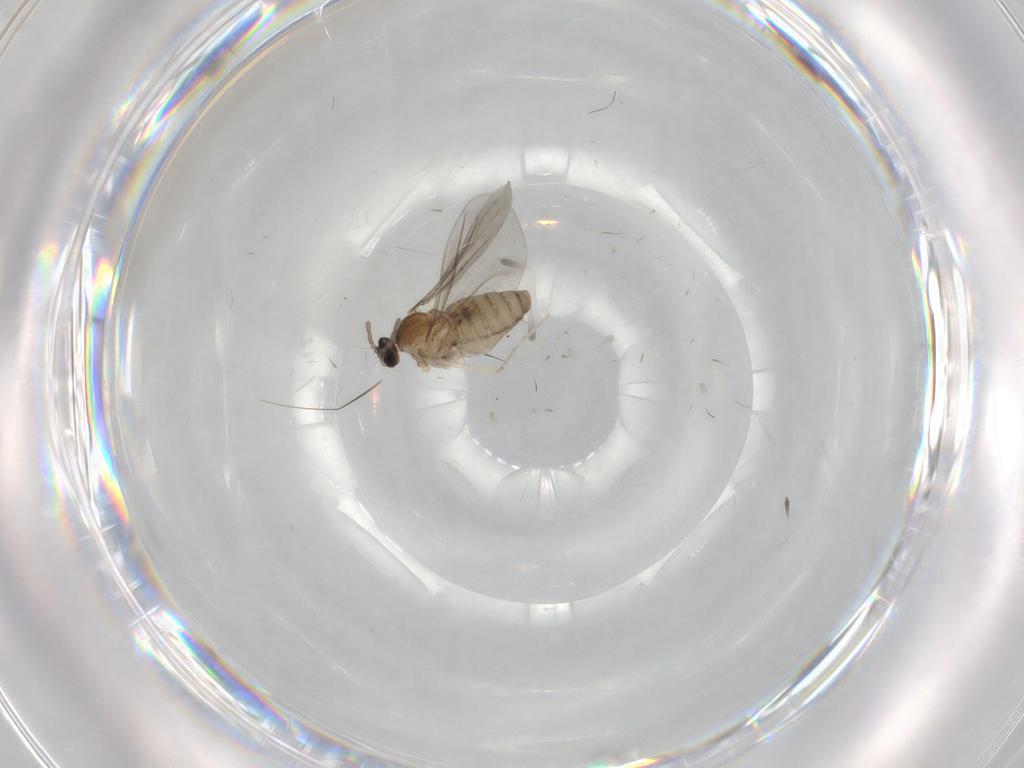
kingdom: Animalia
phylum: Arthropoda
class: Insecta
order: Diptera
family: Cecidomyiidae
